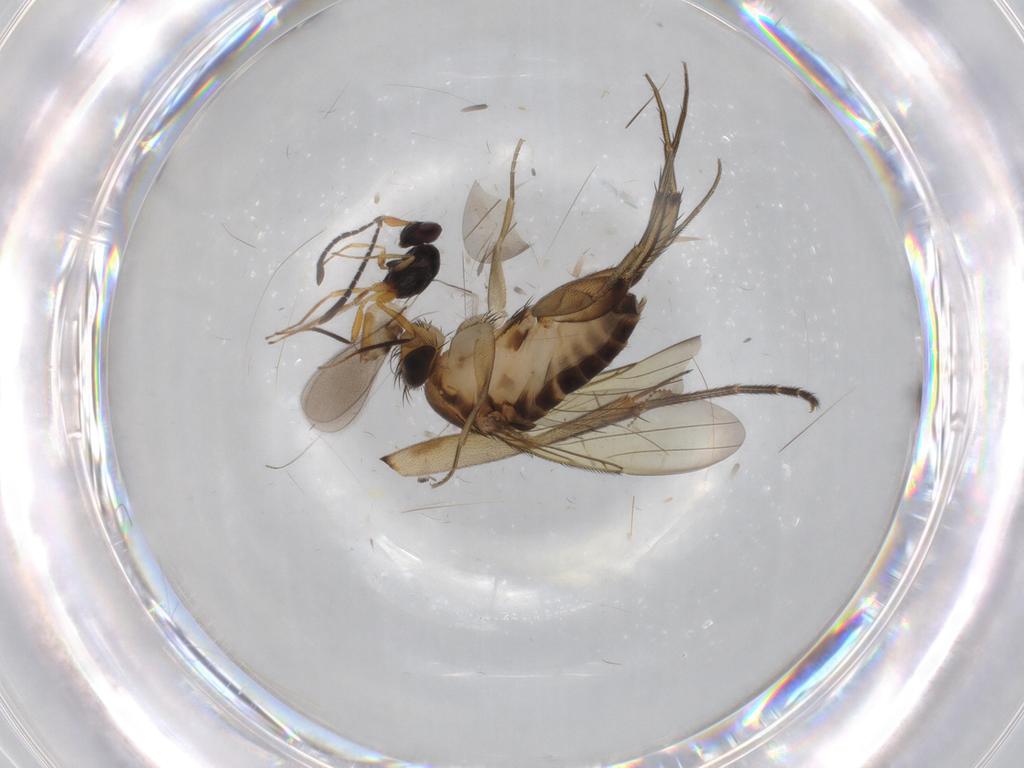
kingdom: Animalia
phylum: Arthropoda
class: Insecta
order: Diptera
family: Phoridae
